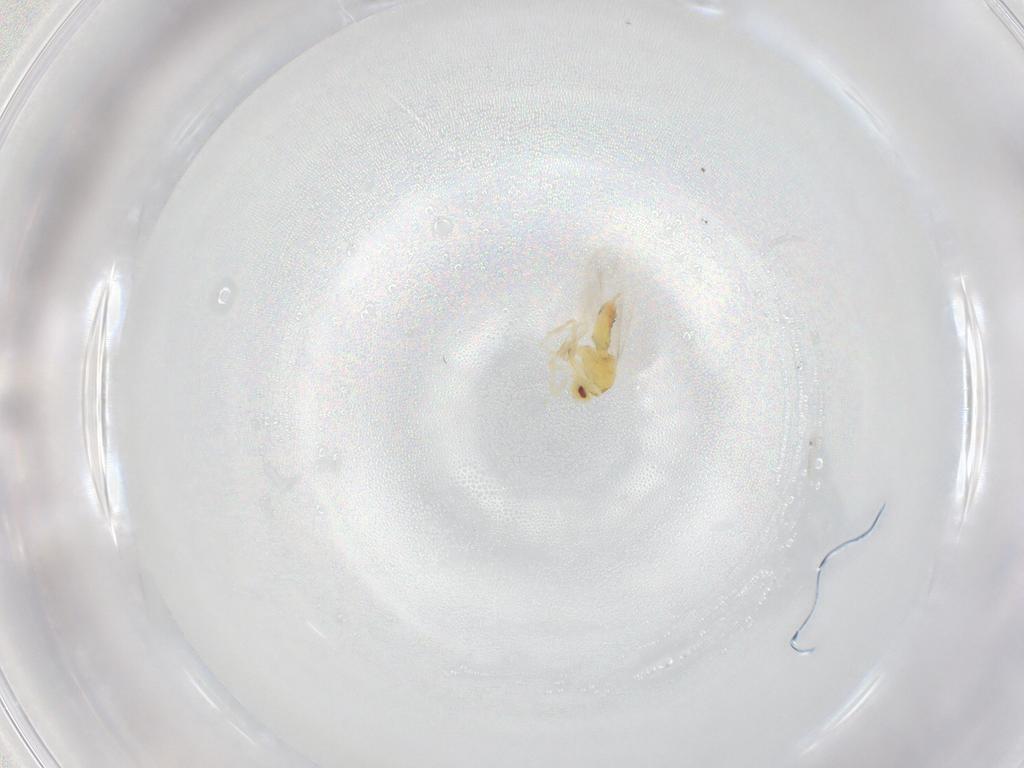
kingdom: Animalia
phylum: Arthropoda
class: Insecta
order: Hemiptera
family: Aleyrodidae
